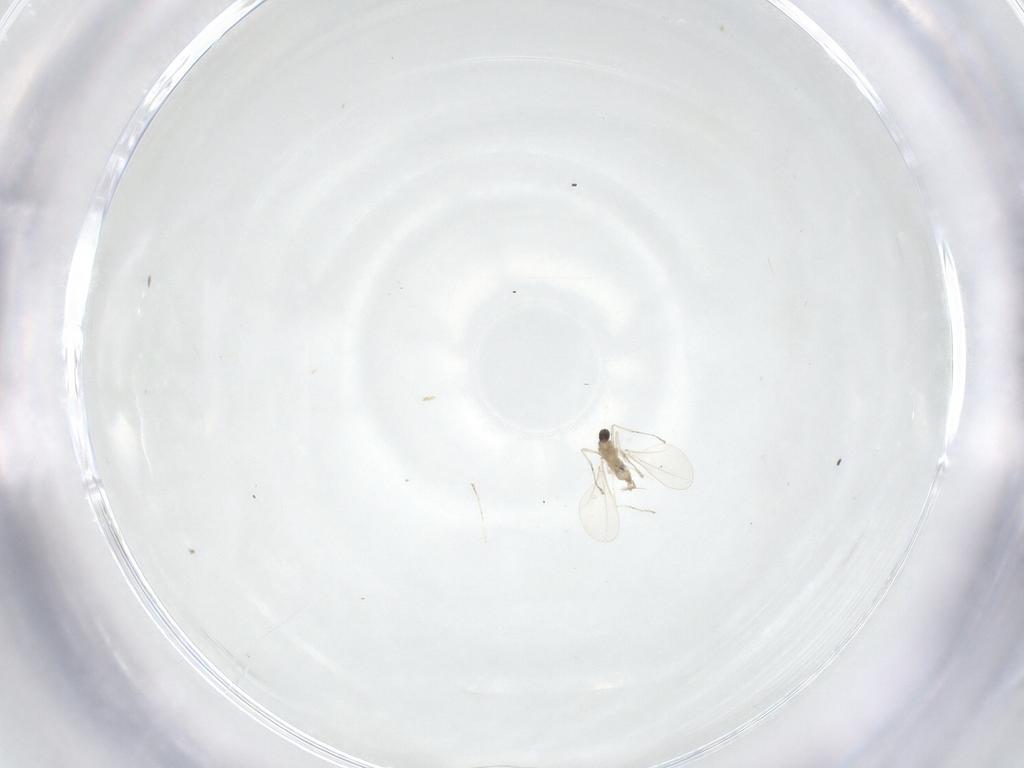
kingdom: Animalia
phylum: Arthropoda
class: Insecta
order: Diptera
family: Cecidomyiidae
